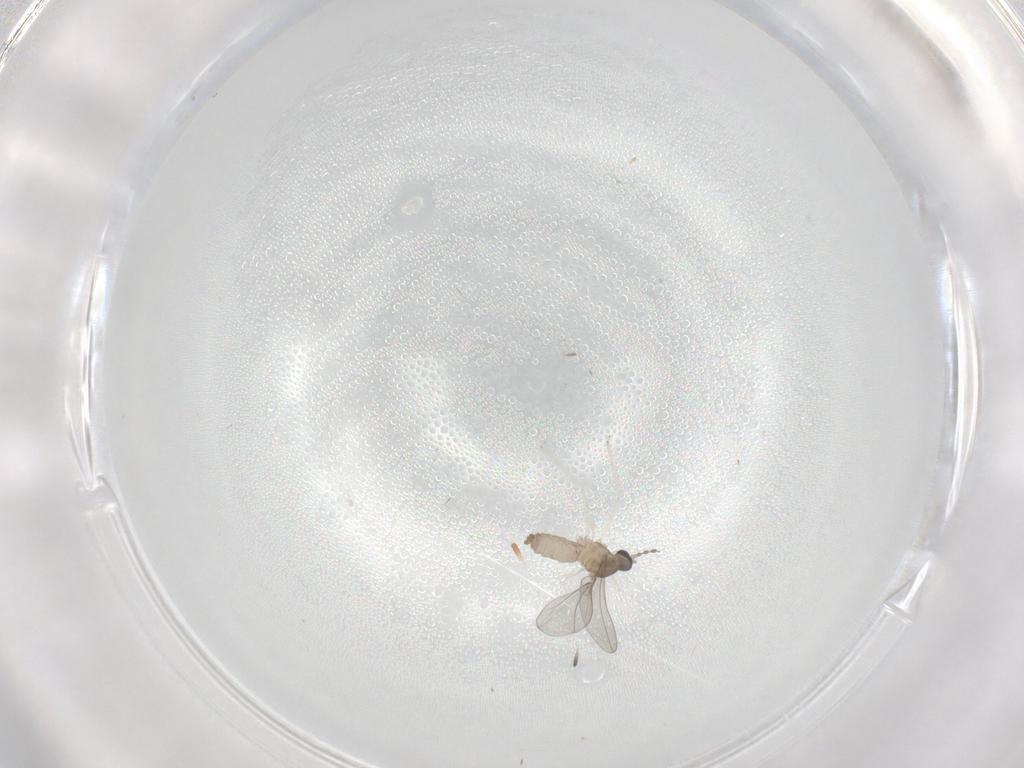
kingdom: Animalia
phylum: Arthropoda
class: Insecta
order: Diptera
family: Cecidomyiidae
